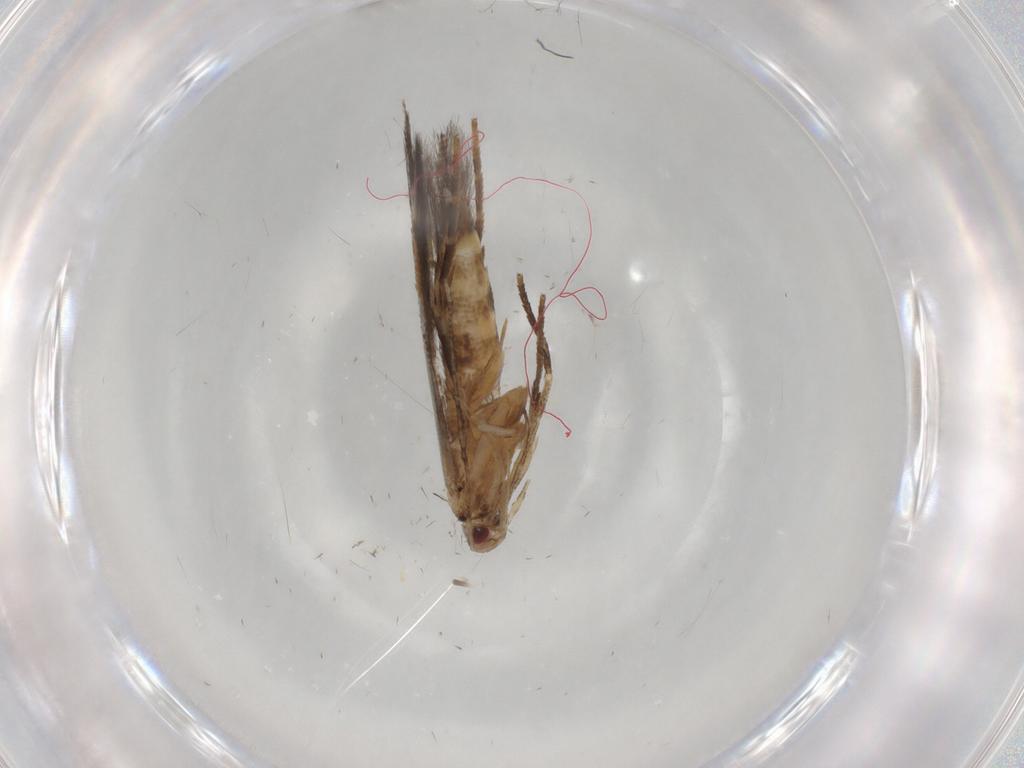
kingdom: Animalia
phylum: Arthropoda
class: Insecta
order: Lepidoptera
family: Cosmopterigidae
